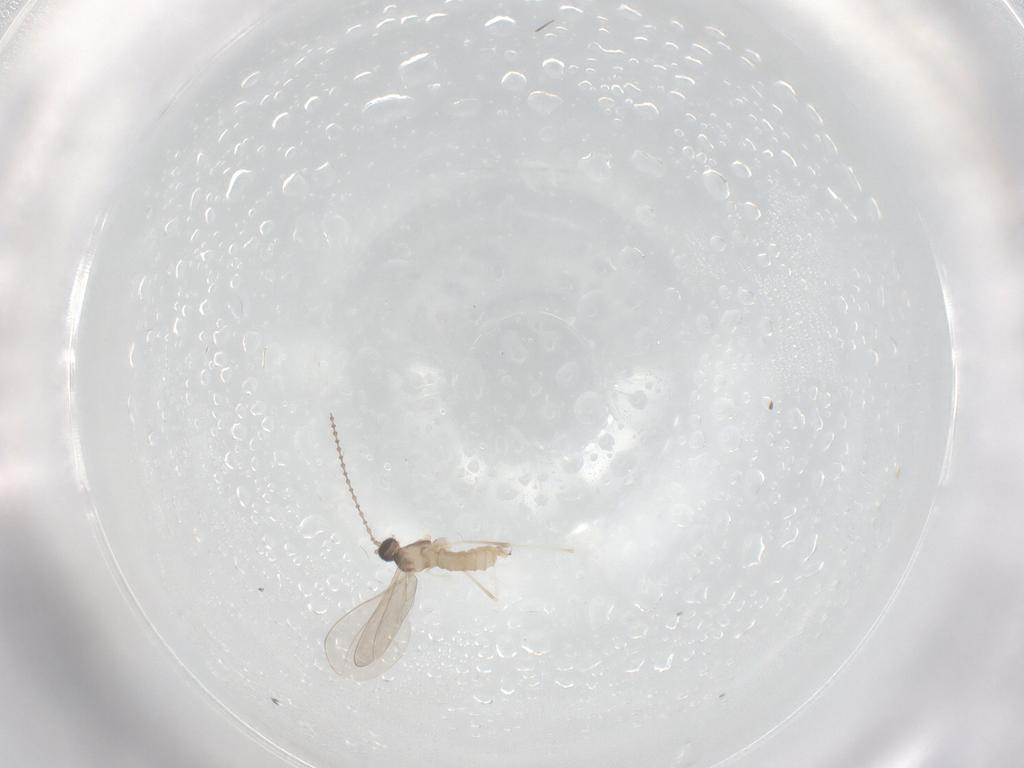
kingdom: Animalia
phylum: Arthropoda
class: Insecta
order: Diptera
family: Cecidomyiidae
